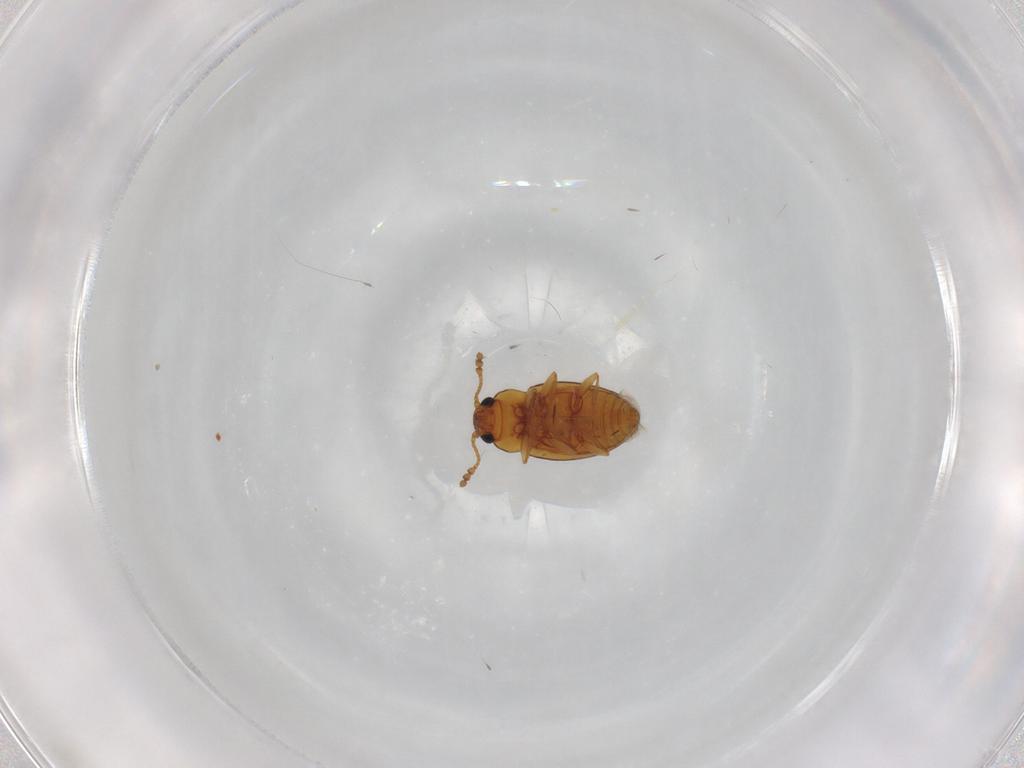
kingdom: Animalia
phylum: Arthropoda
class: Insecta
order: Coleoptera
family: Erotylidae
